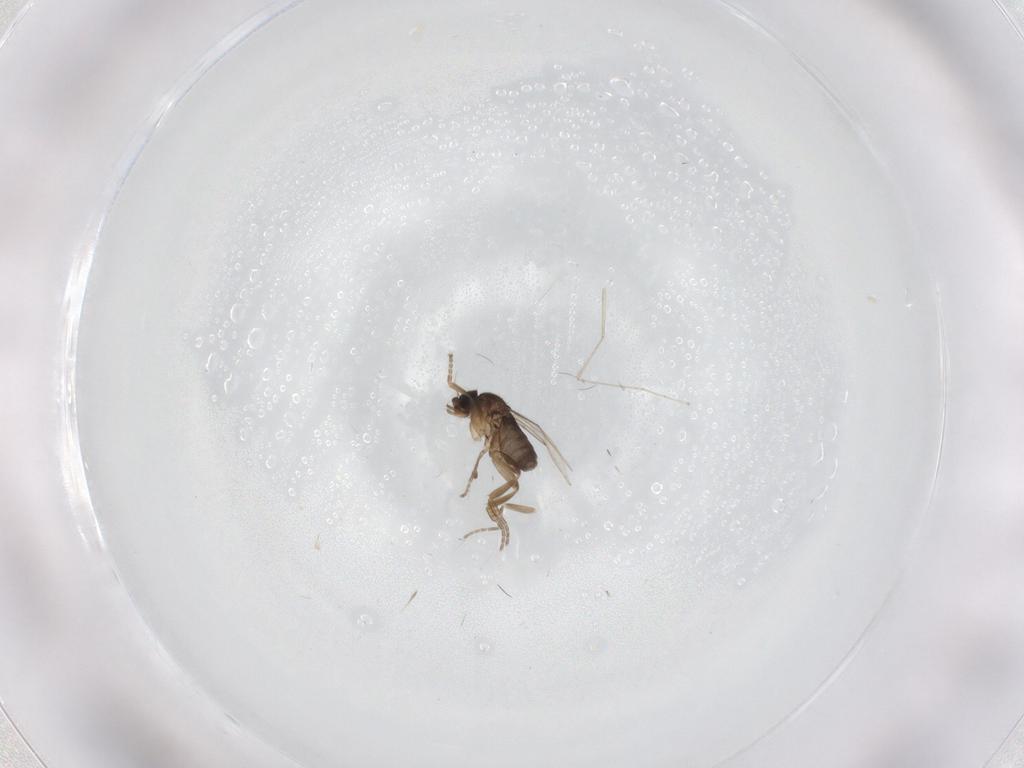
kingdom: Animalia
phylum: Arthropoda
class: Insecta
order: Diptera
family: Phoridae
